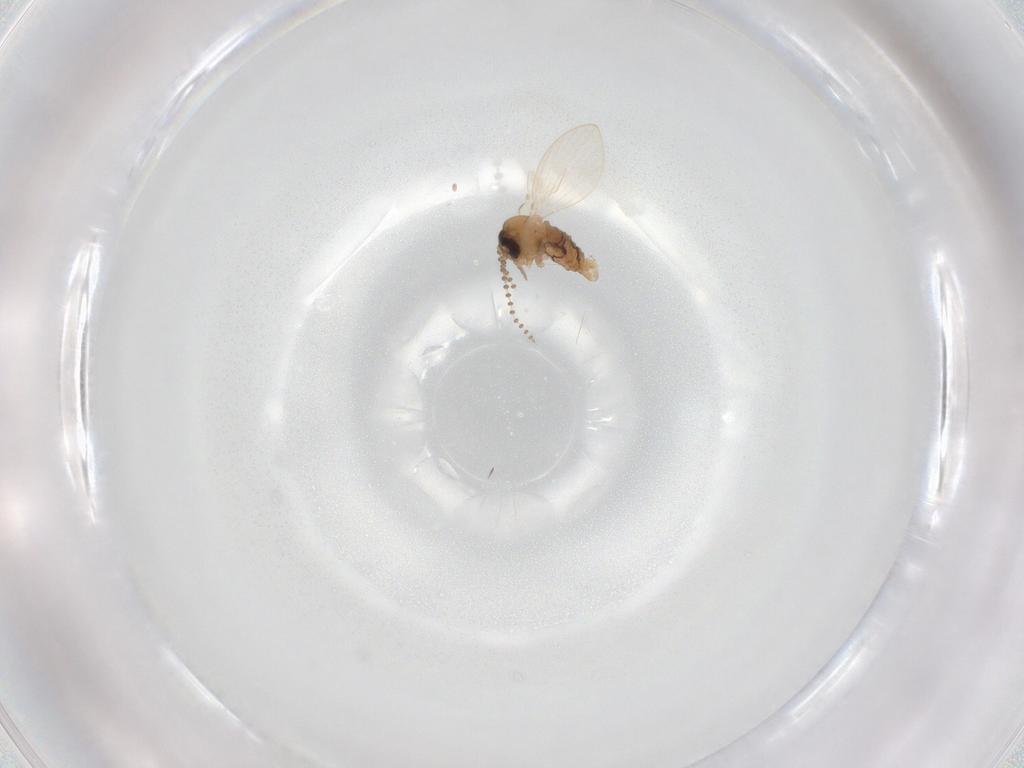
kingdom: Animalia
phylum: Arthropoda
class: Insecta
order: Diptera
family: Psychodidae
